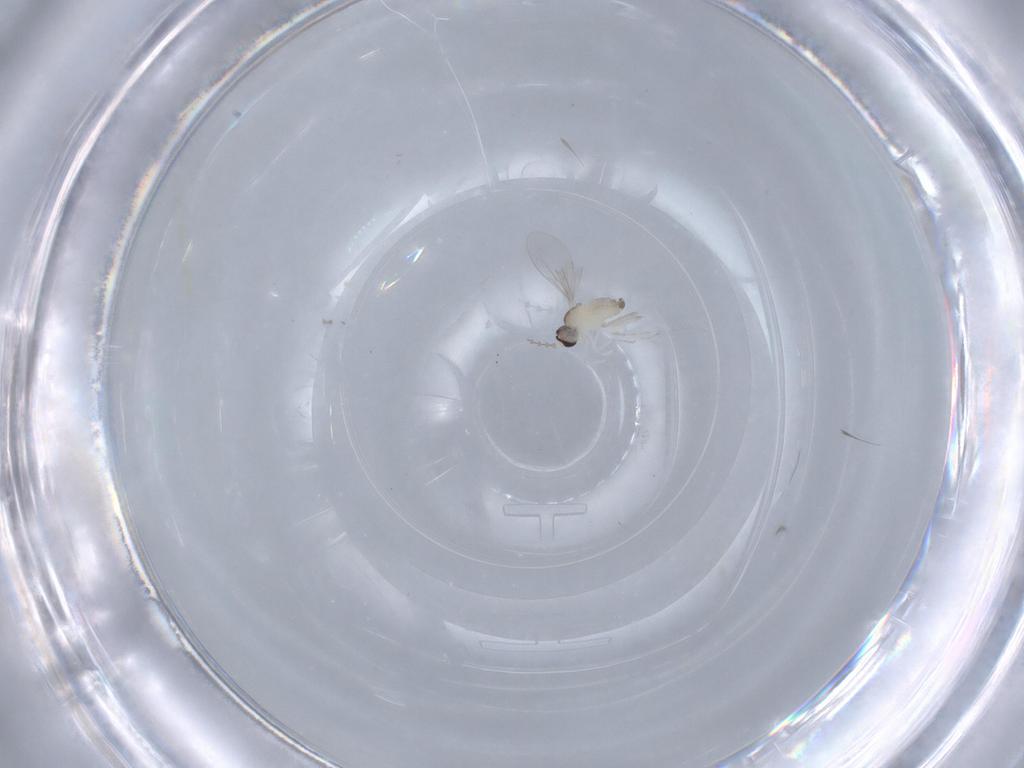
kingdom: Animalia
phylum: Arthropoda
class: Insecta
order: Diptera
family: Cecidomyiidae
